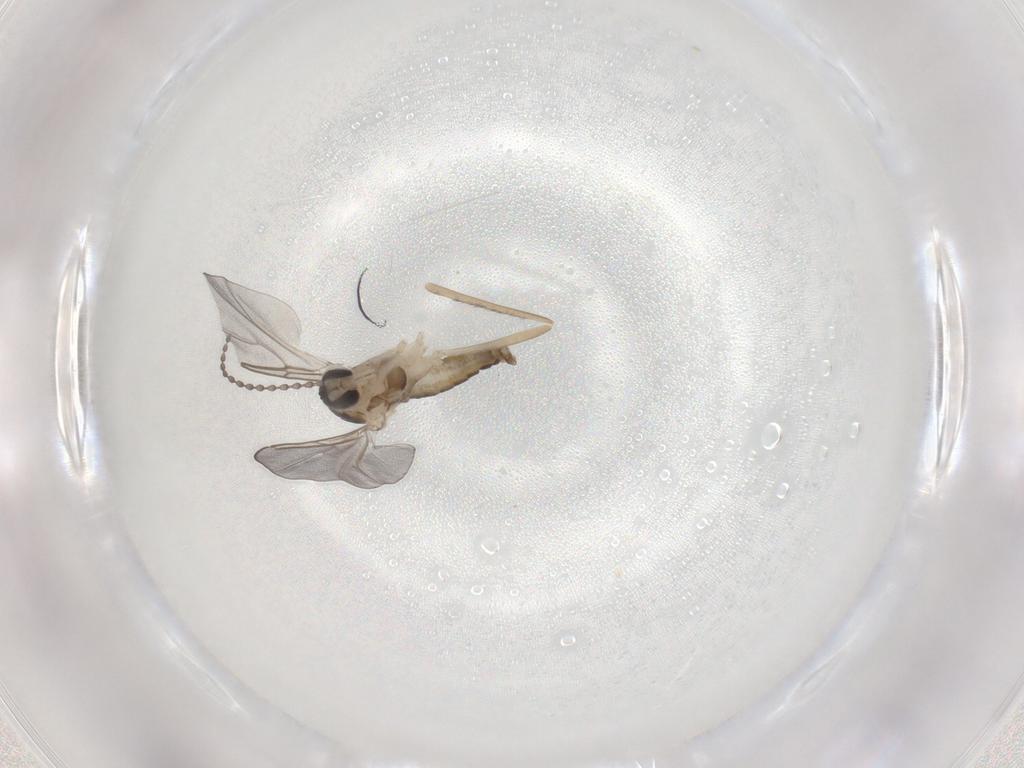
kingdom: Animalia
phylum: Arthropoda
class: Insecta
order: Diptera
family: Cecidomyiidae
